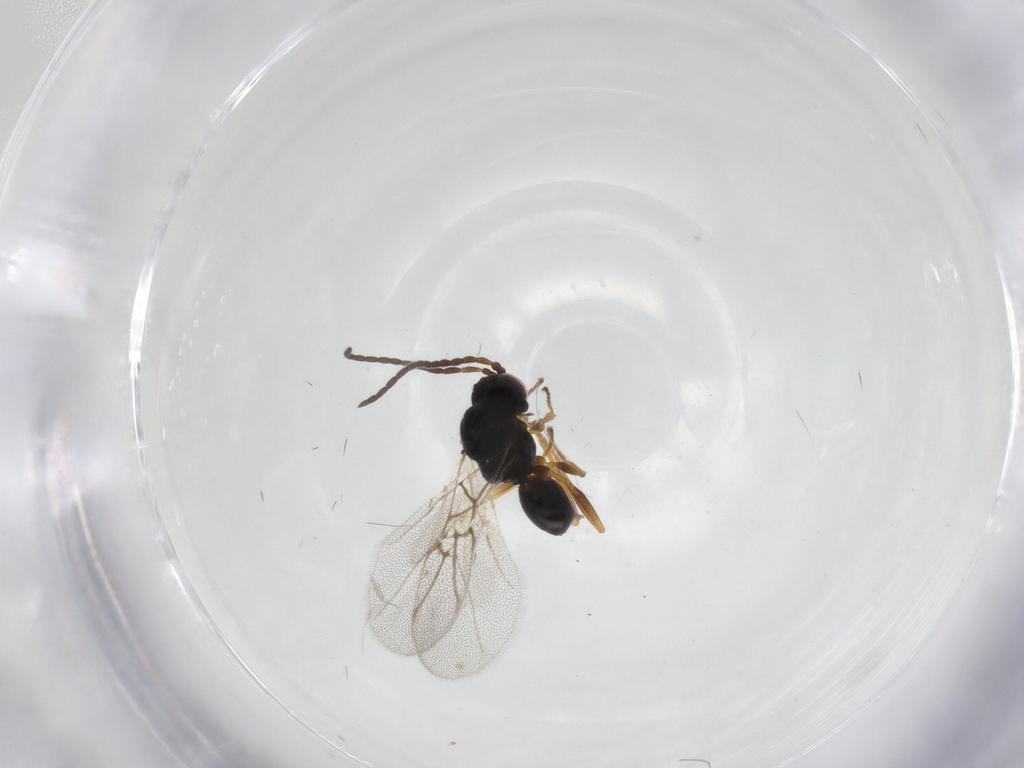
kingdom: Animalia
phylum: Arthropoda
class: Insecta
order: Hymenoptera
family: Cynipidae
